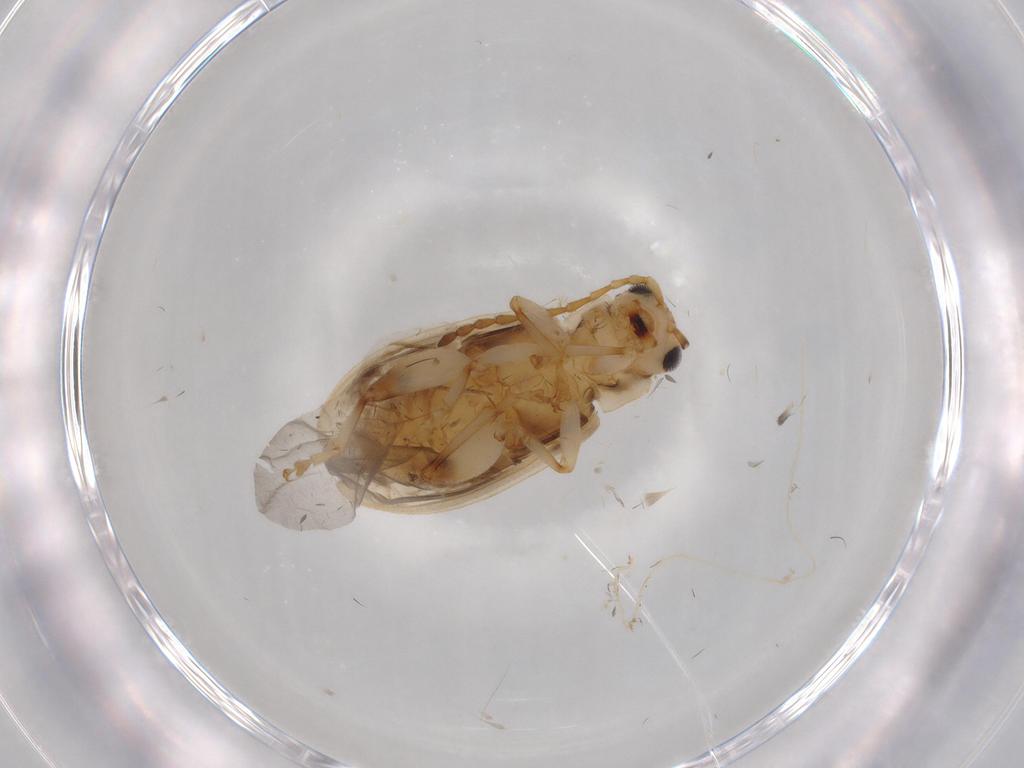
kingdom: Animalia
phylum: Arthropoda
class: Insecta
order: Coleoptera
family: Chrysomelidae
